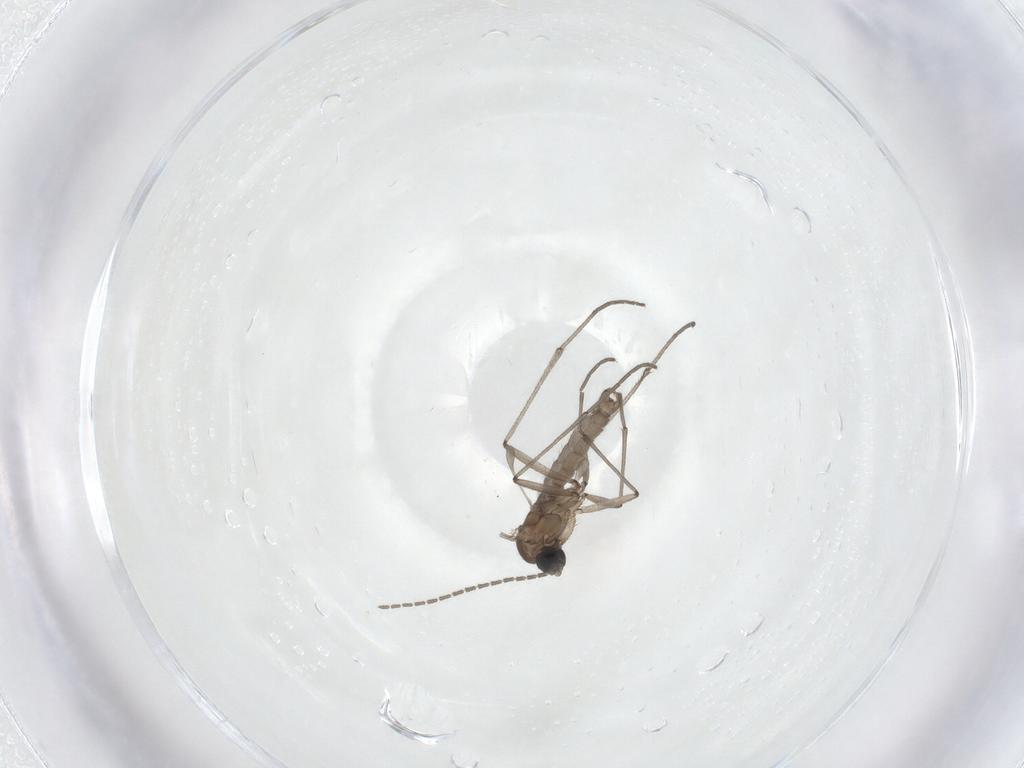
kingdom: Animalia
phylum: Arthropoda
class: Insecta
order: Diptera
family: Sciaridae
